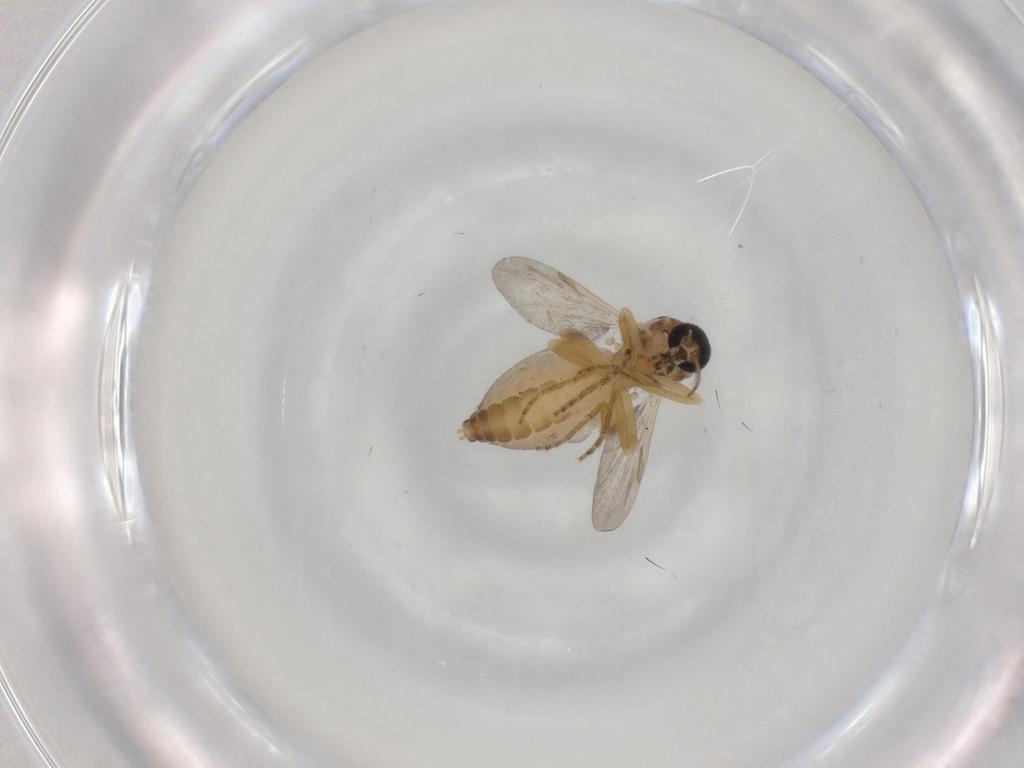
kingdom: Animalia
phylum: Arthropoda
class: Insecta
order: Diptera
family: Ceratopogonidae
